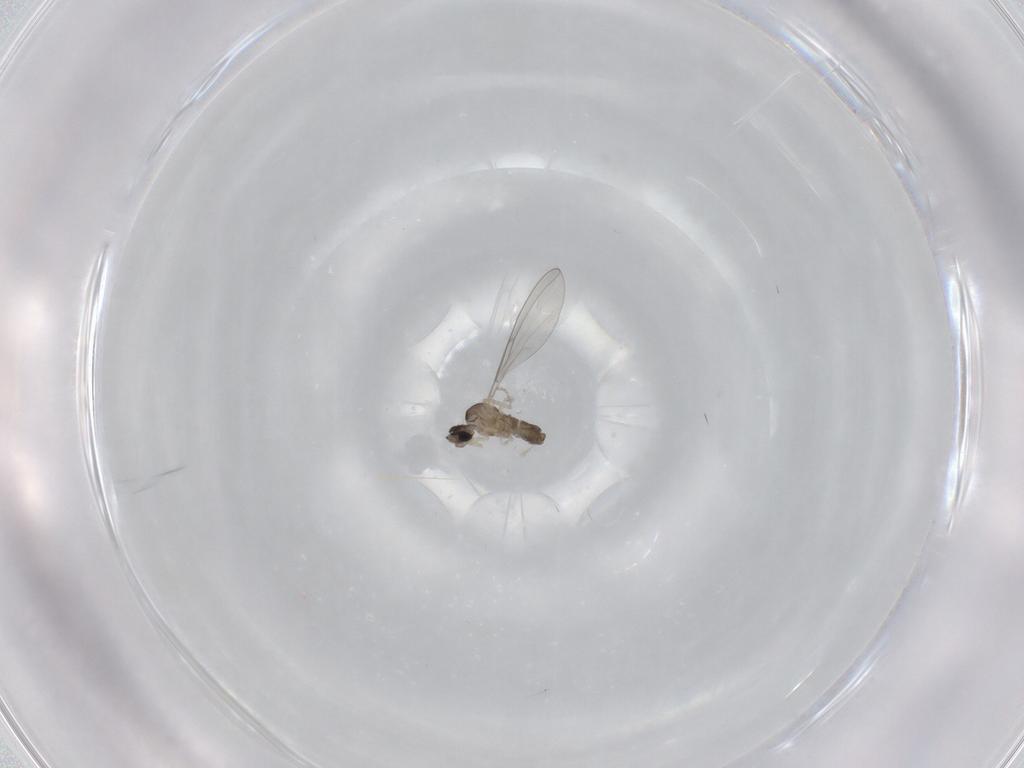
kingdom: Animalia
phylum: Arthropoda
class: Insecta
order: Diptera
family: Cecidomyiidae
